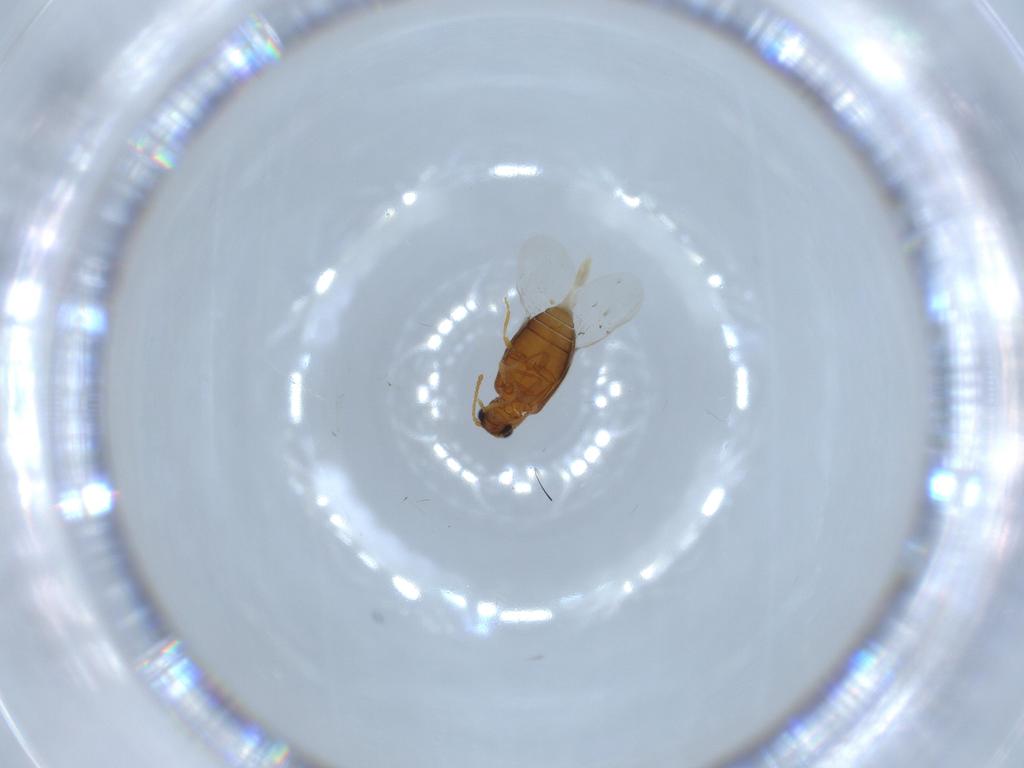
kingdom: Animalia
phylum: Arthropoda
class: Insecta
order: Coleoptera
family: Aderidae
